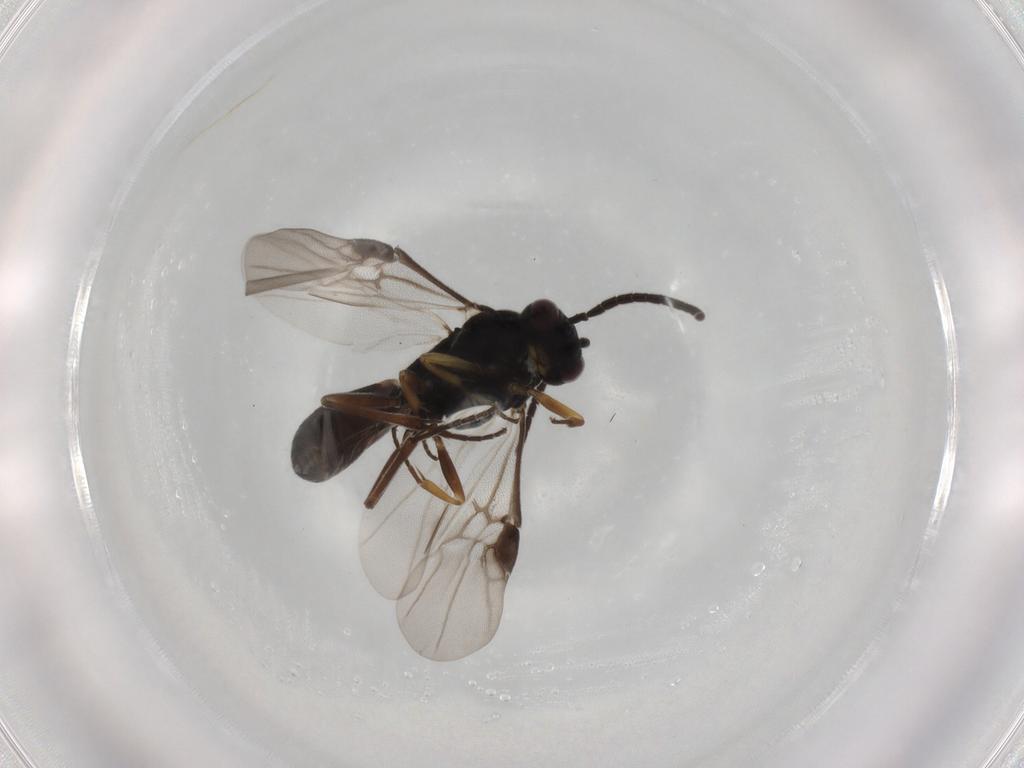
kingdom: Animalia
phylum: Arthropoda
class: Insecta
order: Hymenoptera
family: Braconidae
